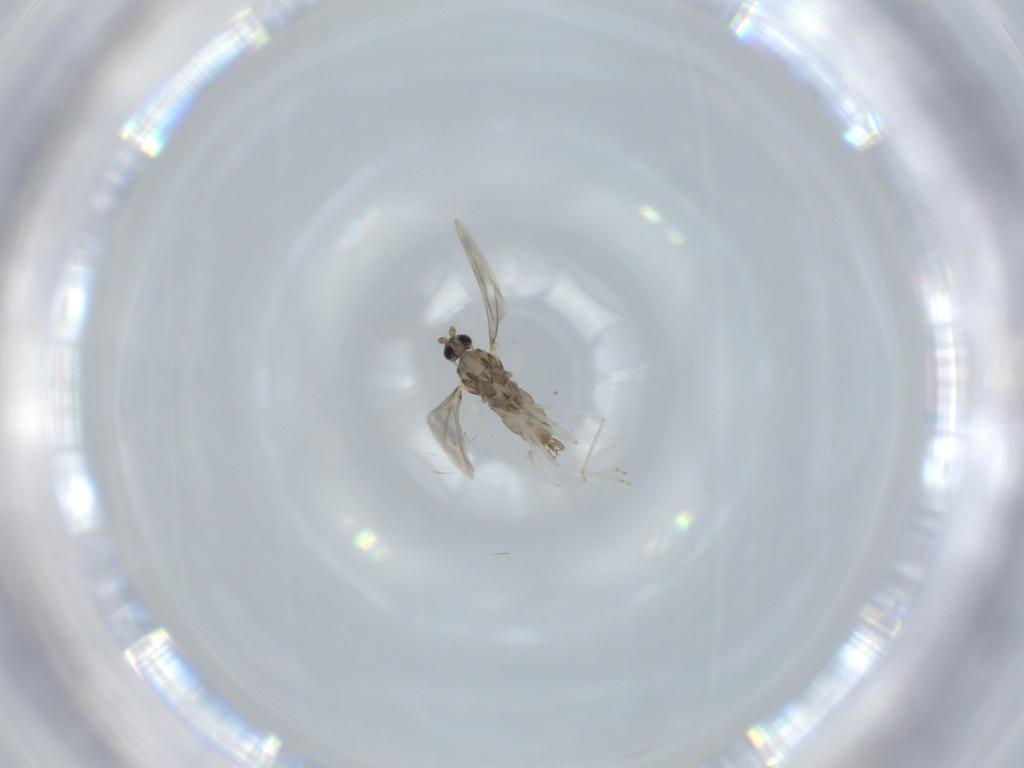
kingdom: Animalia
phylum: Arthropoda
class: Insecta
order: Diptera
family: Cecidomyiidae
